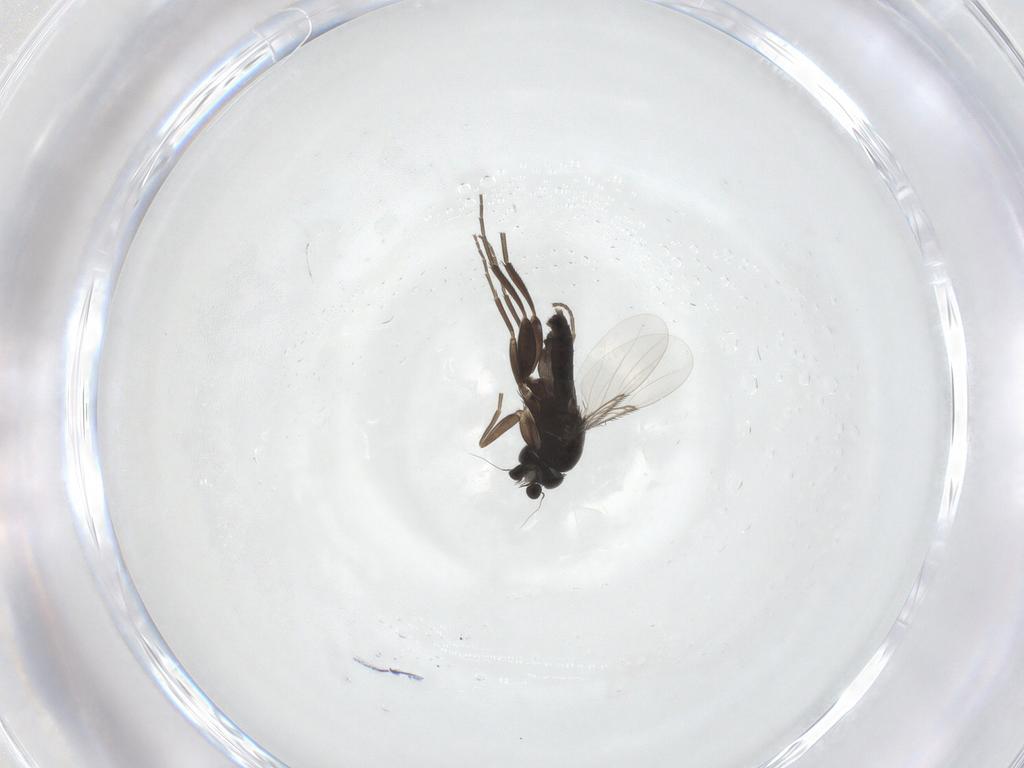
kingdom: Animalia
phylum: Arthropoda
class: Insecta
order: Diptera
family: Phoridae
